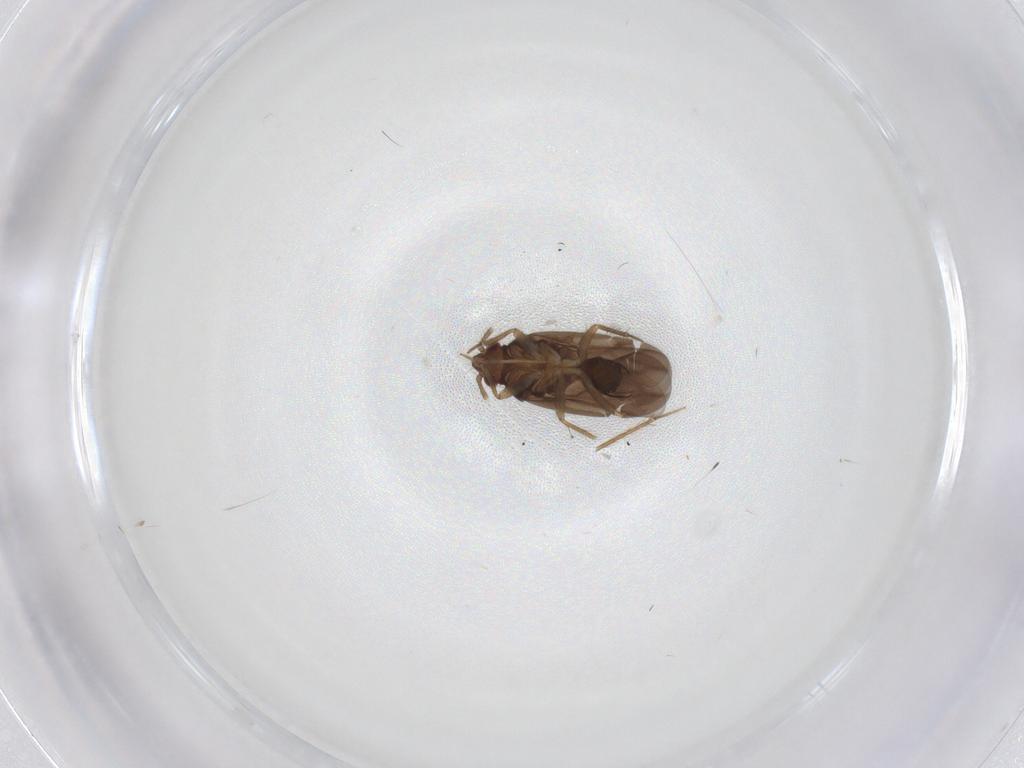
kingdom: Animalia
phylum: Arthropoda
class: Insecta
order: Hemiptera
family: Ceratocombidae
